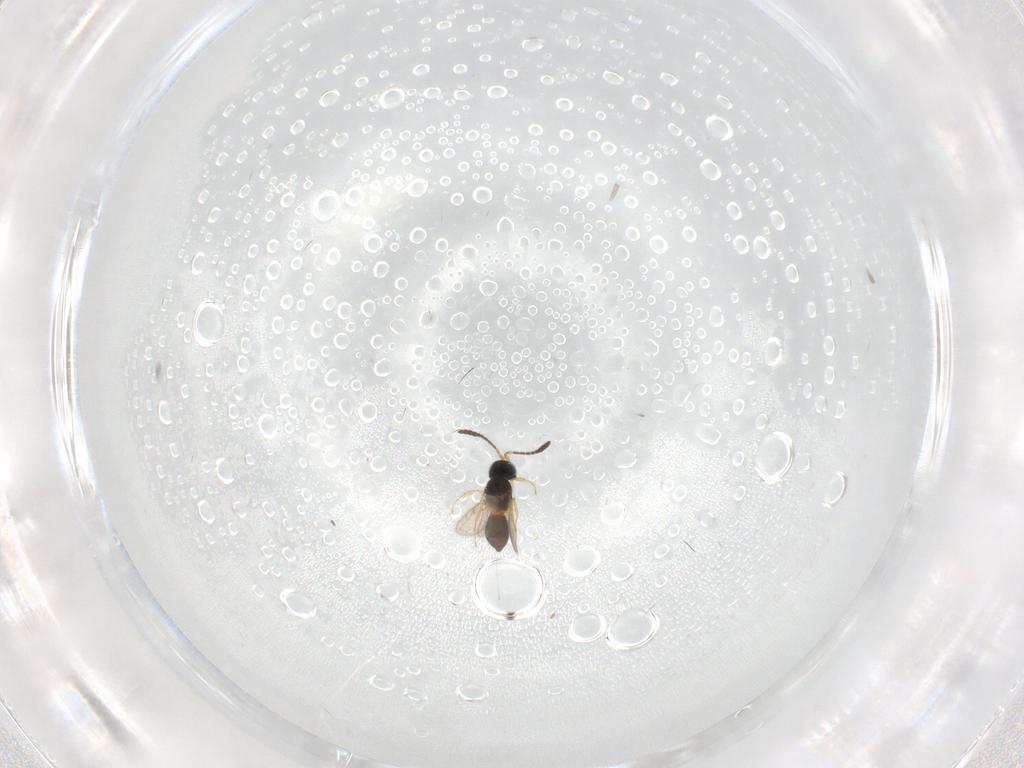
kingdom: Animalia
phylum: Arthropoda
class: Insecta
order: Hymenoptera
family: Scelionidae
